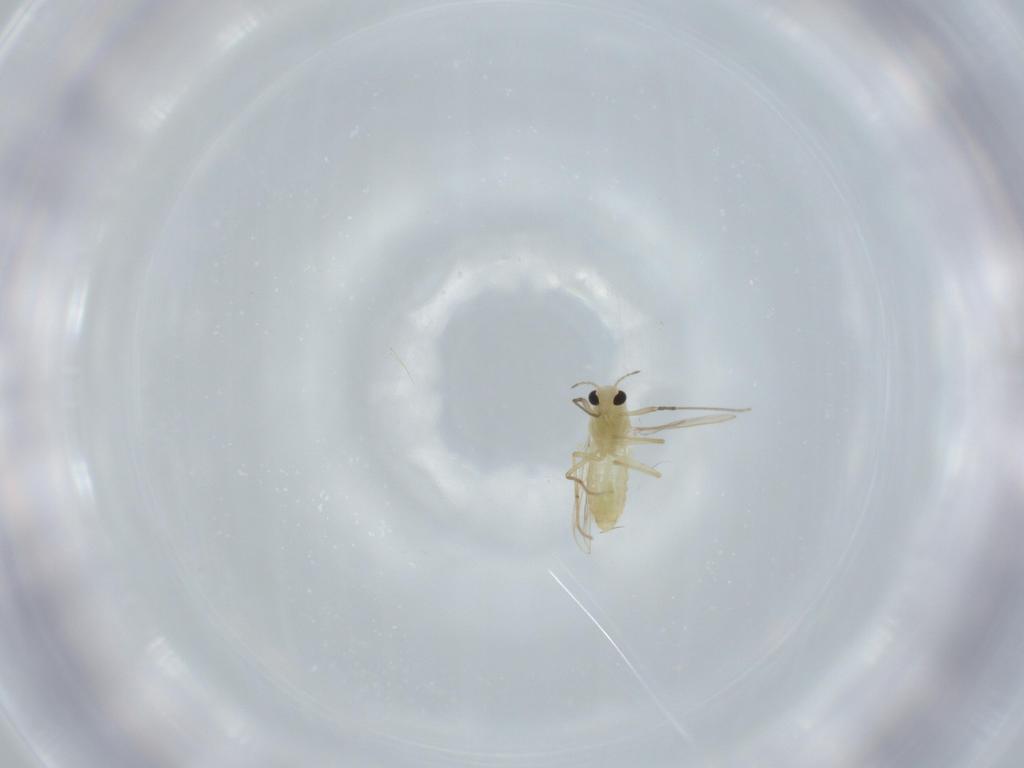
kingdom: Animalia
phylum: Arthropoda
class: Insecta
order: Diptera
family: Chironomidae
